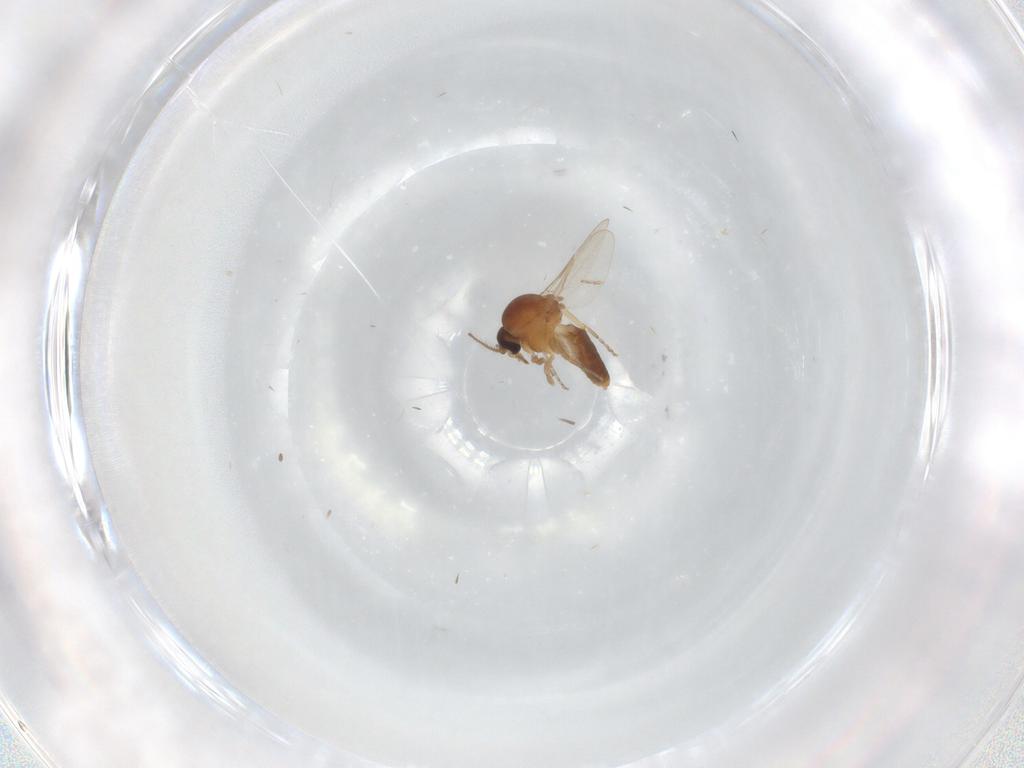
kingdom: Animalia
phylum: Arthropoda
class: Insecta
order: Diptera
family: Ceratopogonidae
